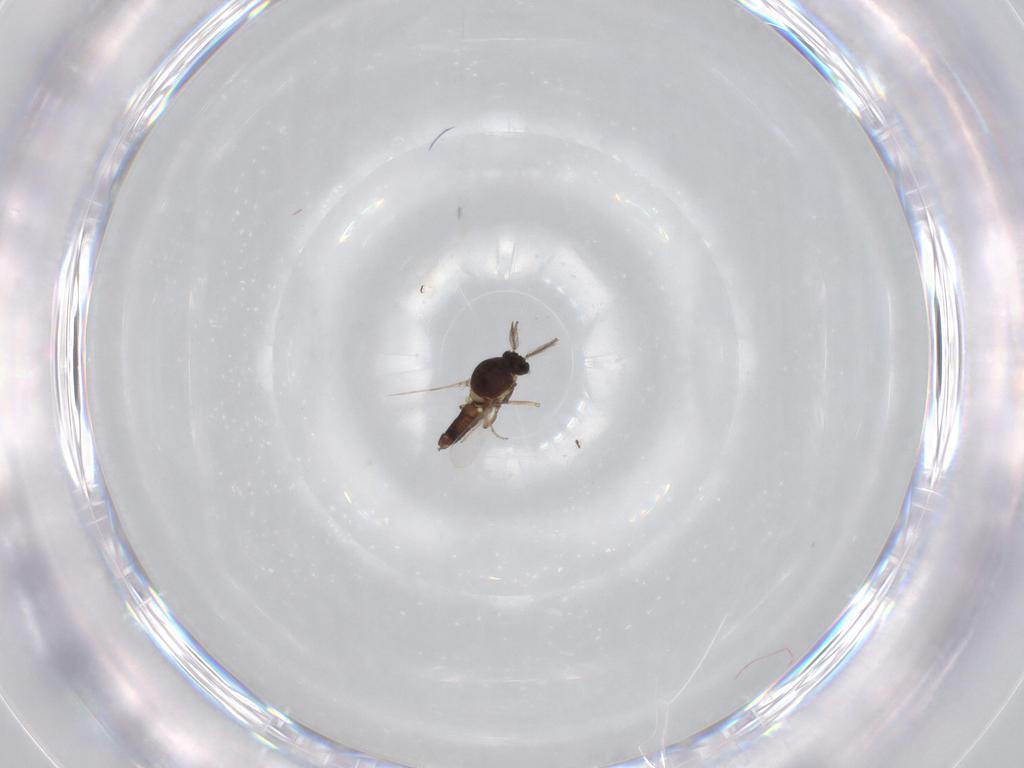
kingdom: Animalia
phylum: Arthropoda
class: Insecta
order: Diptera
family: Ceratopogonidae
